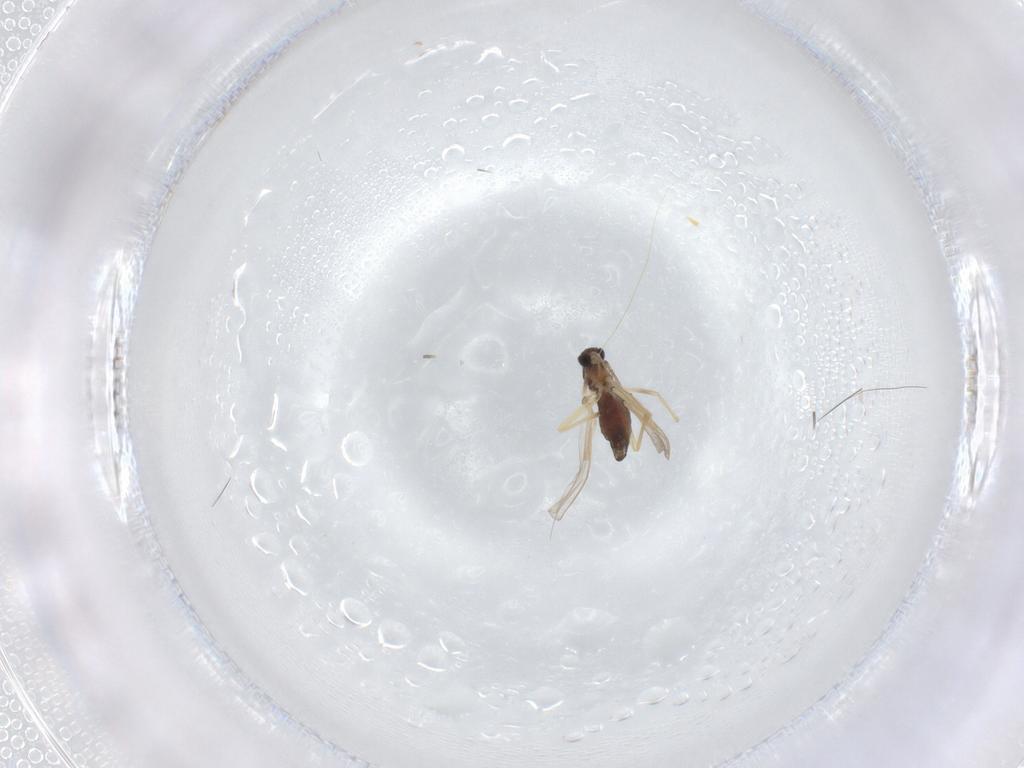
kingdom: Animalia
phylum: Arthropoda
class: Insecta
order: Diptera
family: Chironomidae
